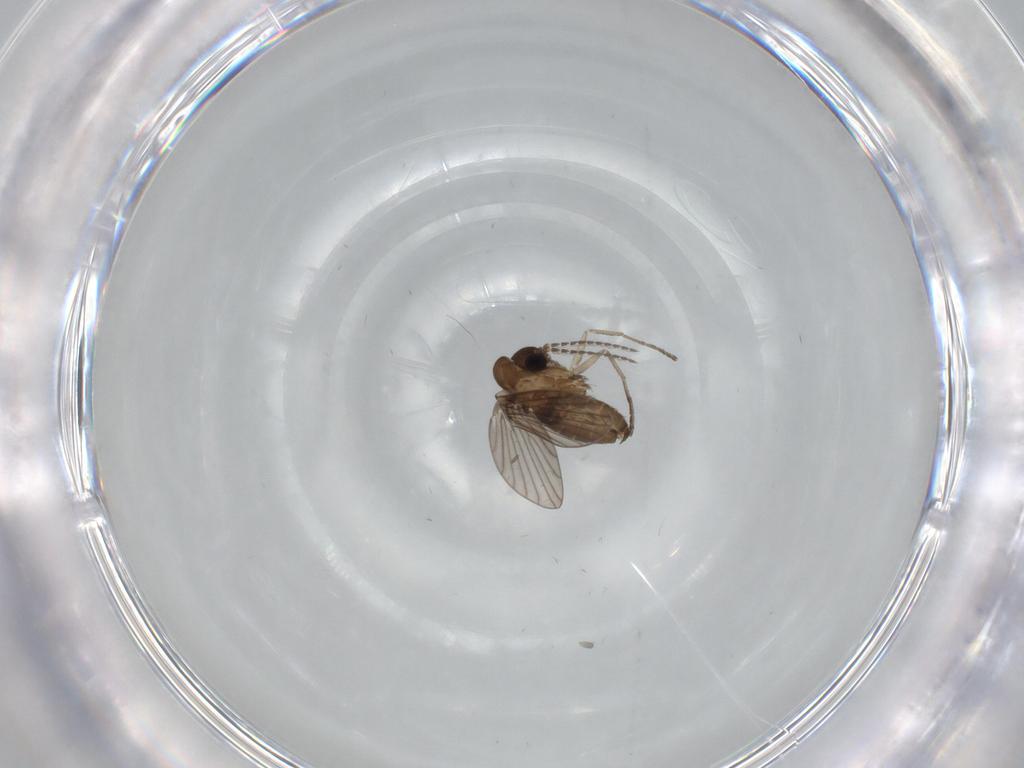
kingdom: Animalia
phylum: Arthropoda
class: Insecta
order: Diptera
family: Psychodidae
